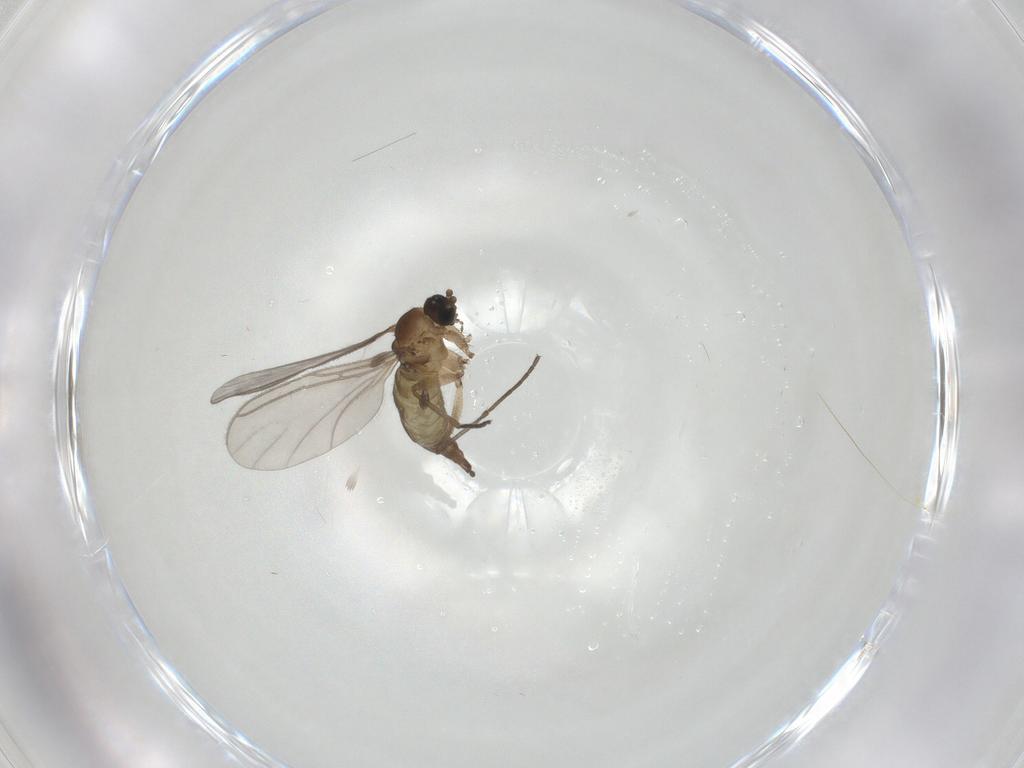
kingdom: Animalia
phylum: Arthropoda
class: Insecta
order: Diptera
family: Sciaridae
